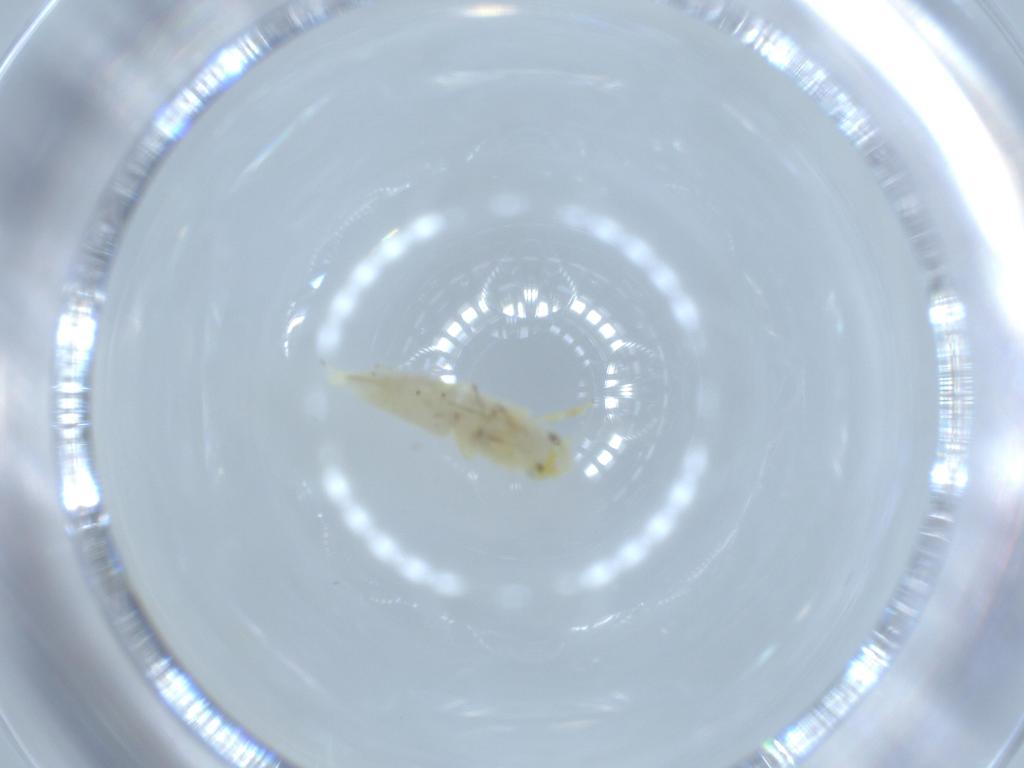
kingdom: Animalia
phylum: Arthropoda
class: Insecta
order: Hemiptera
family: Cicadellidae
